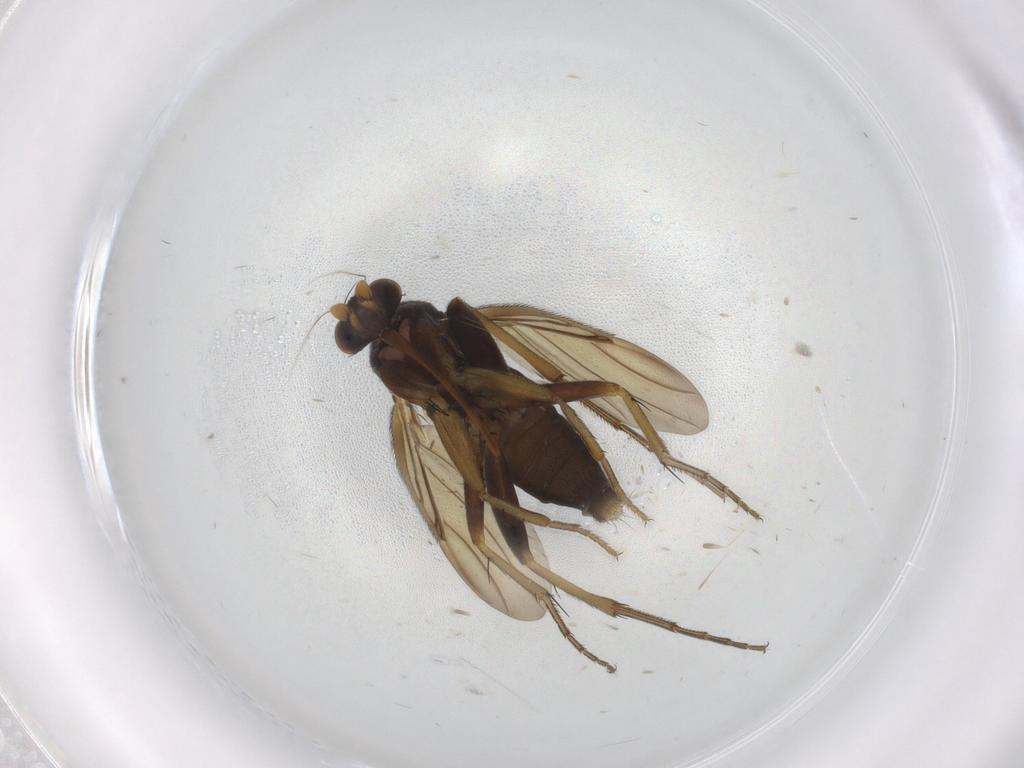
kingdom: Animalia
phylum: Arthropoda
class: Insecta
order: Diptera
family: Phoridae
